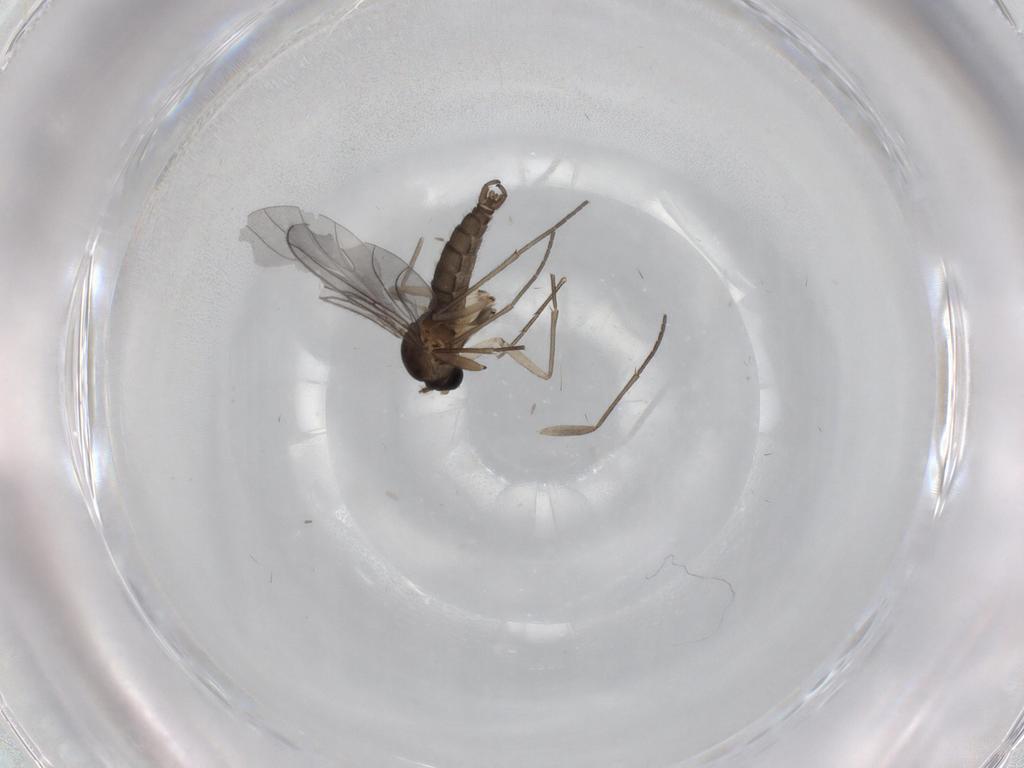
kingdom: Animalia
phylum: Arthropoda
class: Insecta
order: Diptera
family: Sciaridae
